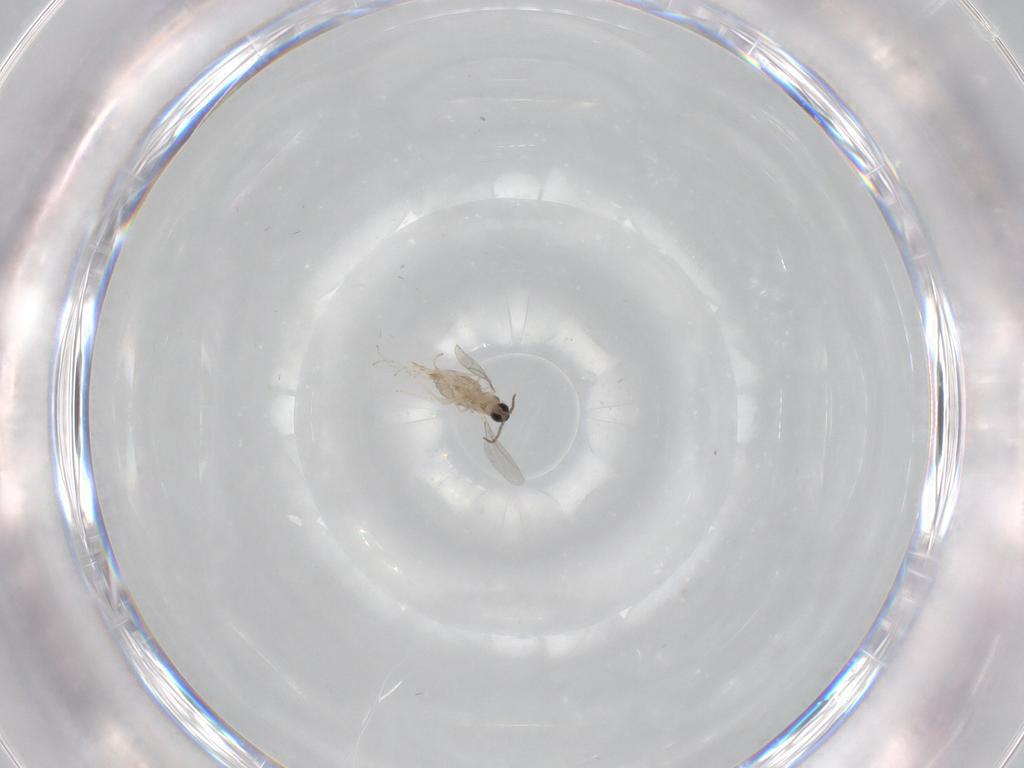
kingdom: Animalia
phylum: Arthropoda
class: Insecta
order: Diptera
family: Cecidomyiidae
